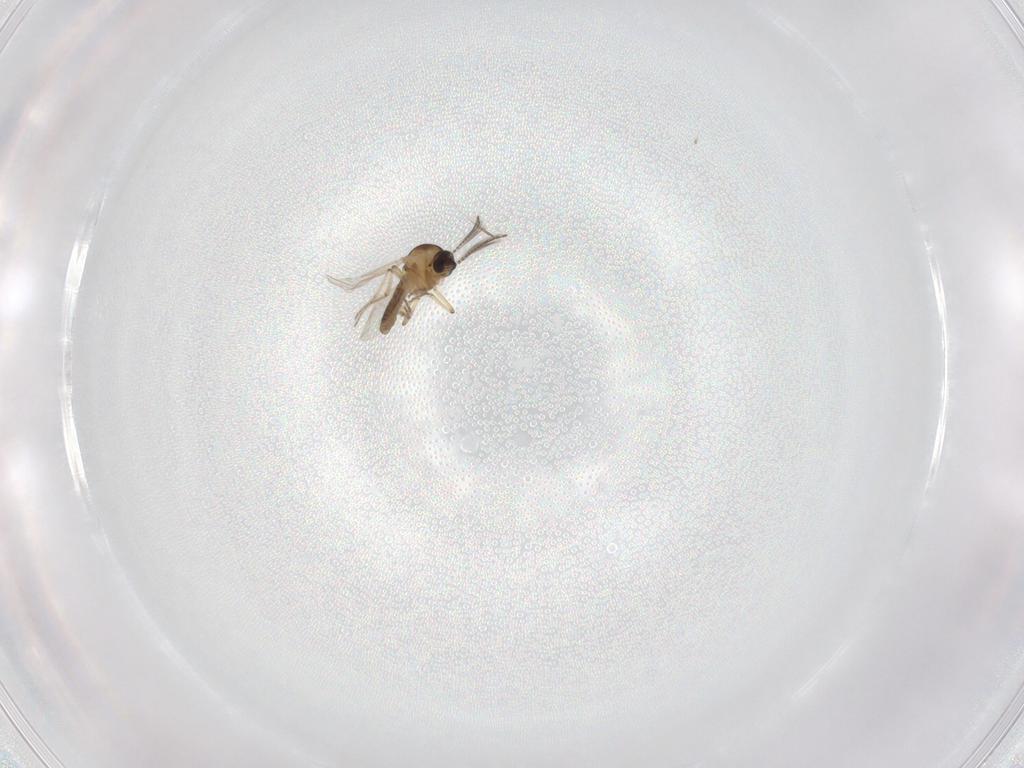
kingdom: Animalia
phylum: Arthropoda
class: Insecta
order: Diptera
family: Ceratopogonidae
